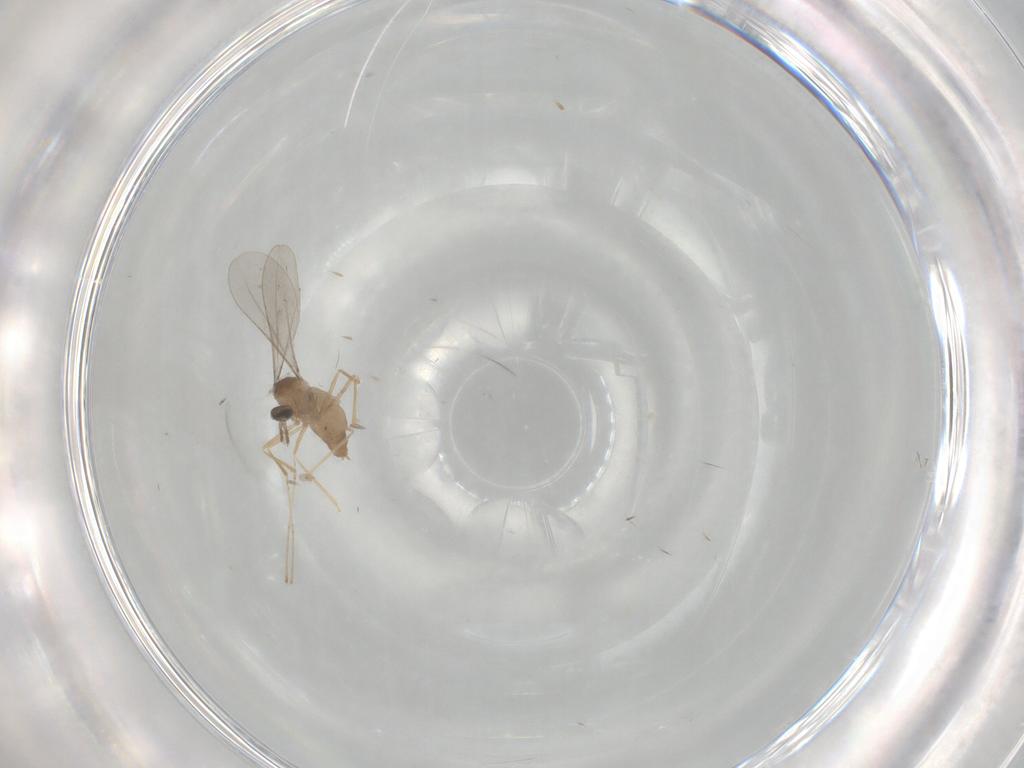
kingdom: Animalia
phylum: Arthropoda
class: Insecta
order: Diptera
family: Cecidomyiidae
